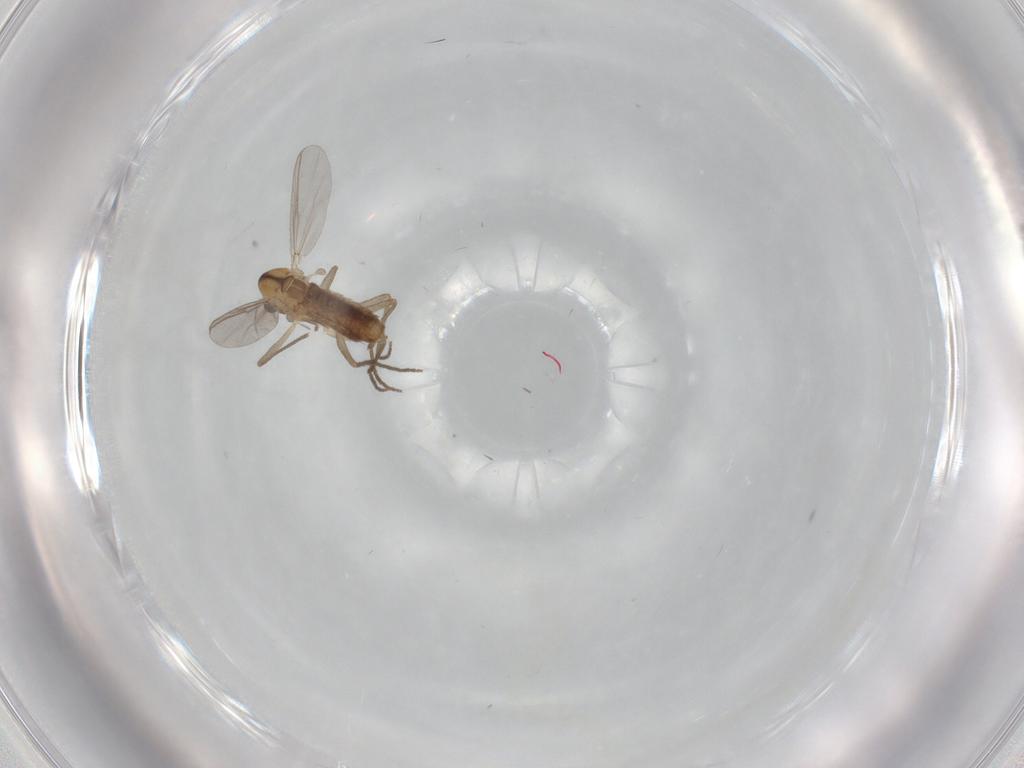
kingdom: Animalia
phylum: Arthropoda
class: Insecta
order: Diptera
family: Chironomidae
